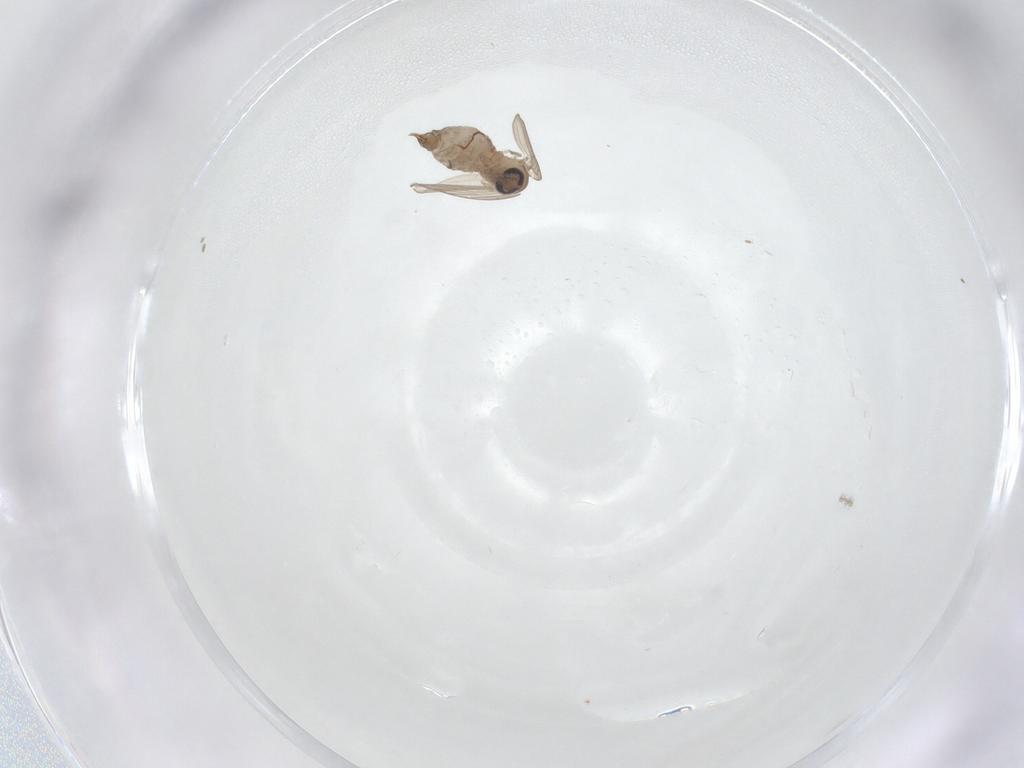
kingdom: Animalia
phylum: Arthropoda
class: Insecta
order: Diptera
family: Psychodidae
